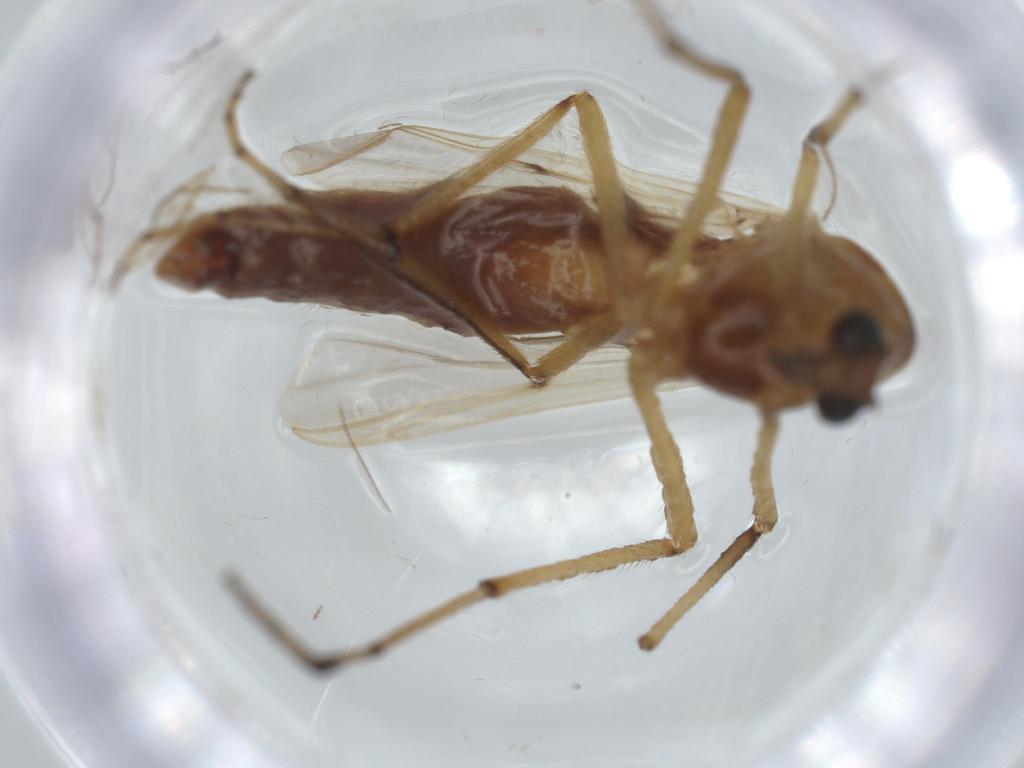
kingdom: Animalia
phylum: Arthropoda
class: Insecta
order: Diptera
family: Chironomidae
